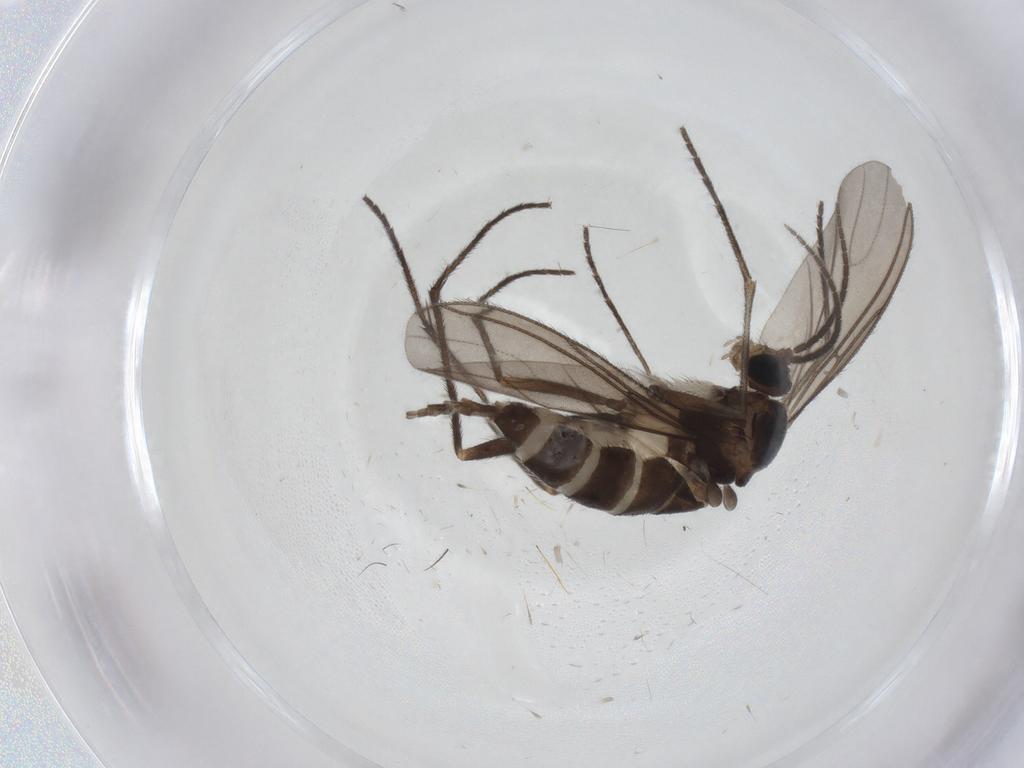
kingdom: Animalia
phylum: Arthropoda
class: Insecta
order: Diptera
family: Sciaridae
